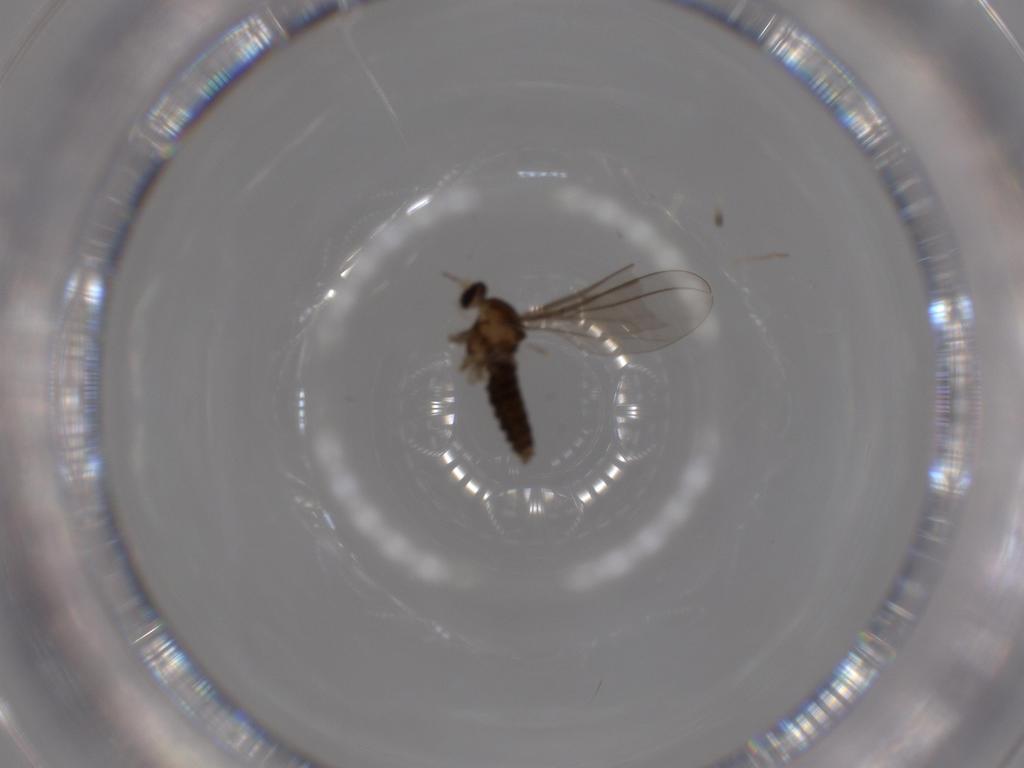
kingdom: Animalia
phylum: Arthropoda
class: Insecta
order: Diptera
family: Cecidomyiidae
